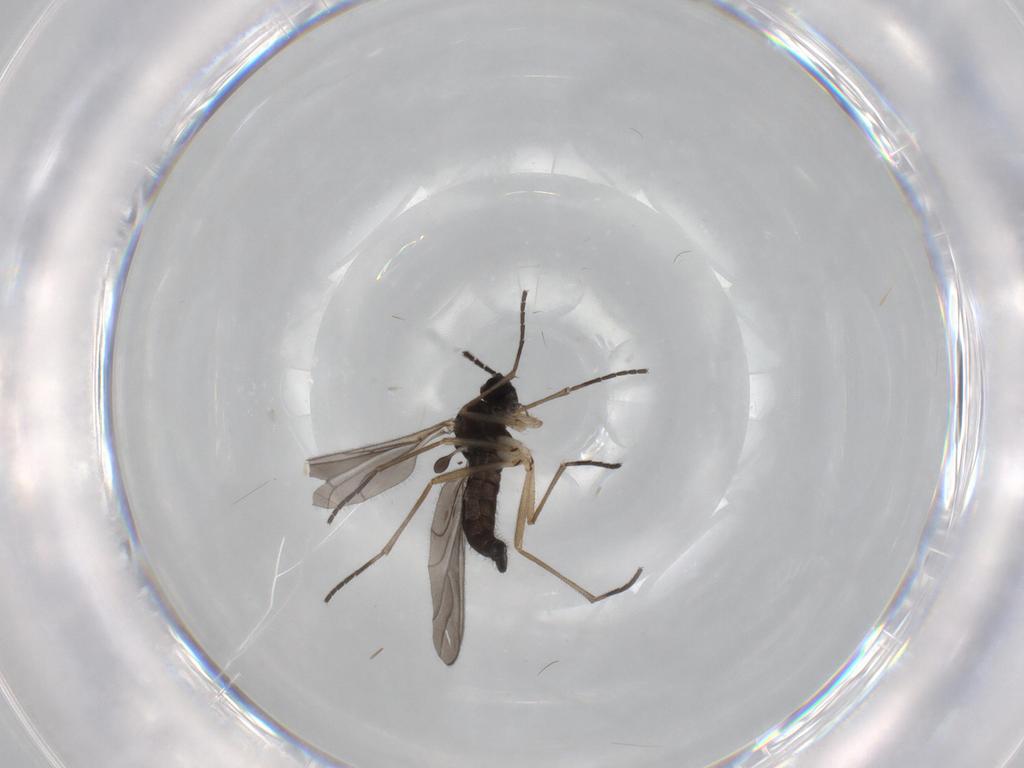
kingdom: Animalia
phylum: Arthropoda
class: Insecta
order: Diptera
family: Sciaridae
